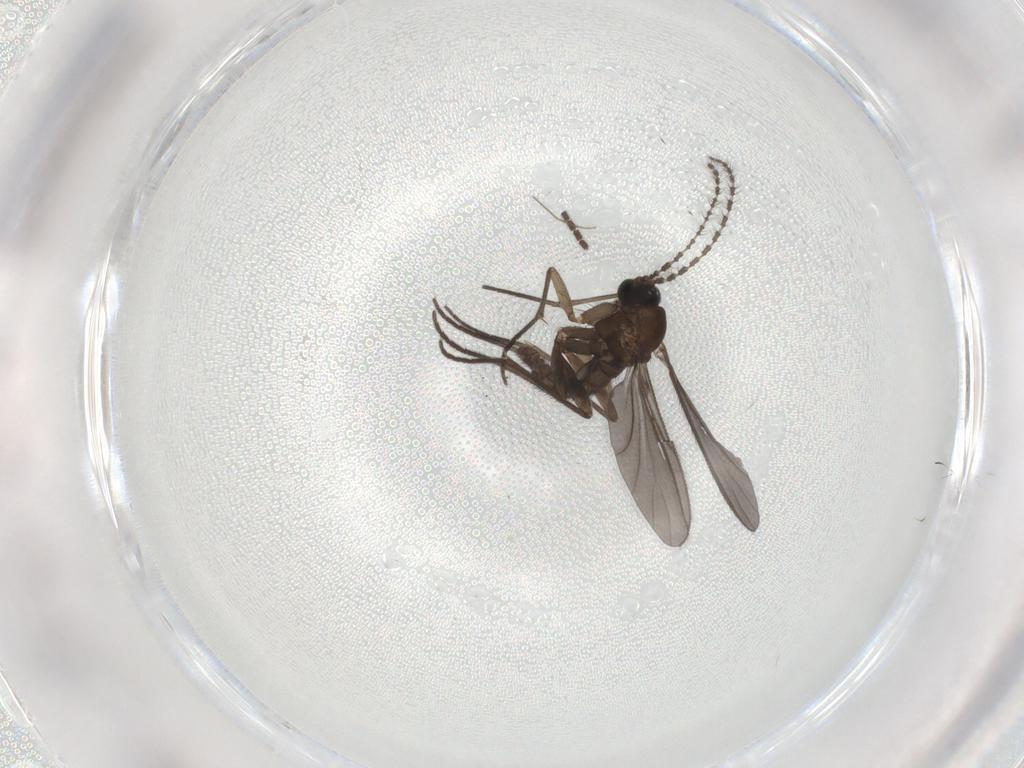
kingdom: Animalia
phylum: Arthropoda
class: Insecta
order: Diptera
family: Sciaridae
